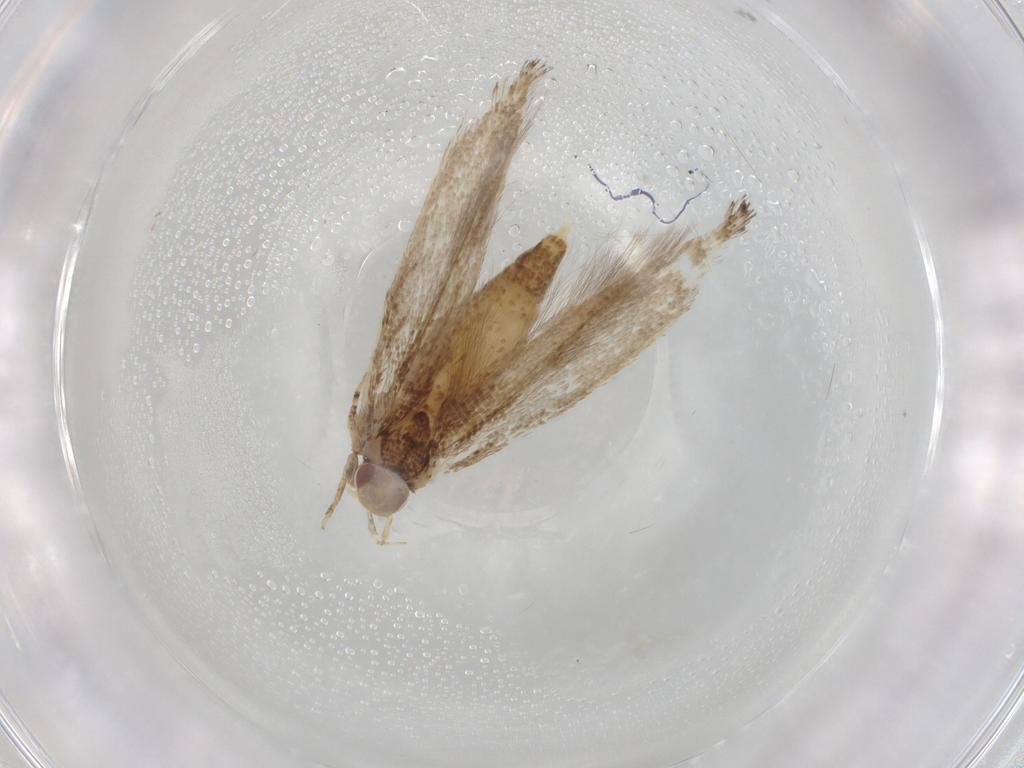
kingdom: Animalia
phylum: Arthropoda
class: Insecta
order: Lepidoptera
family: Cosmopterigidae
